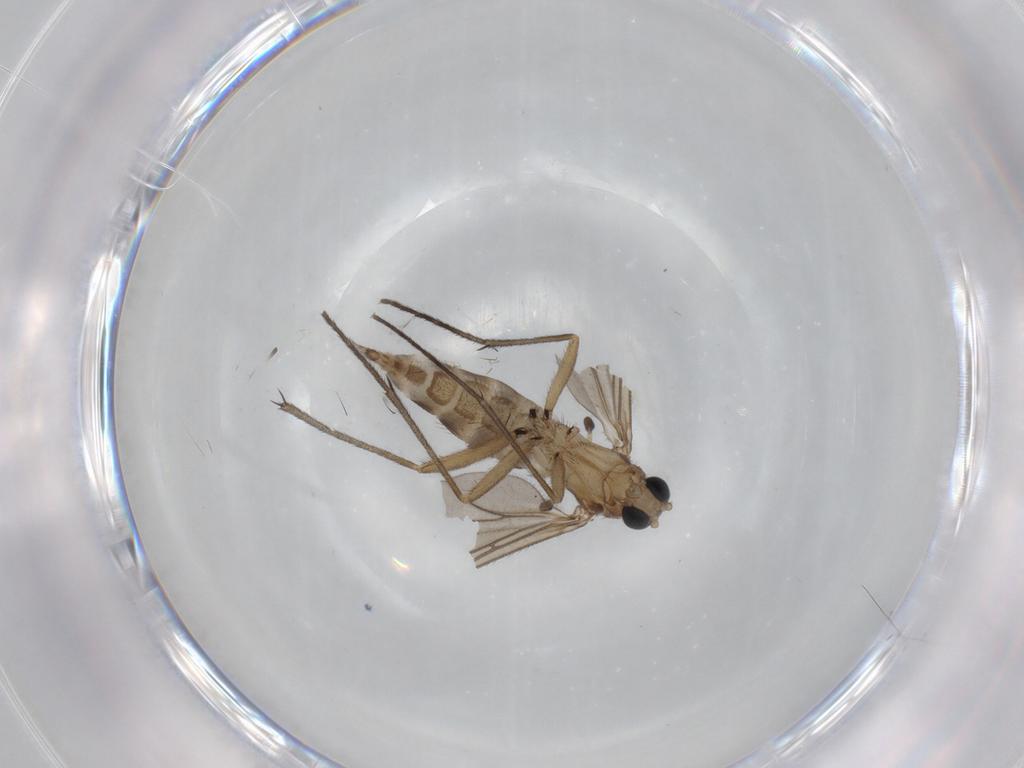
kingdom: Animalia
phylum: Arthropoda
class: Insecta
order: Diptera
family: Sciaridae
